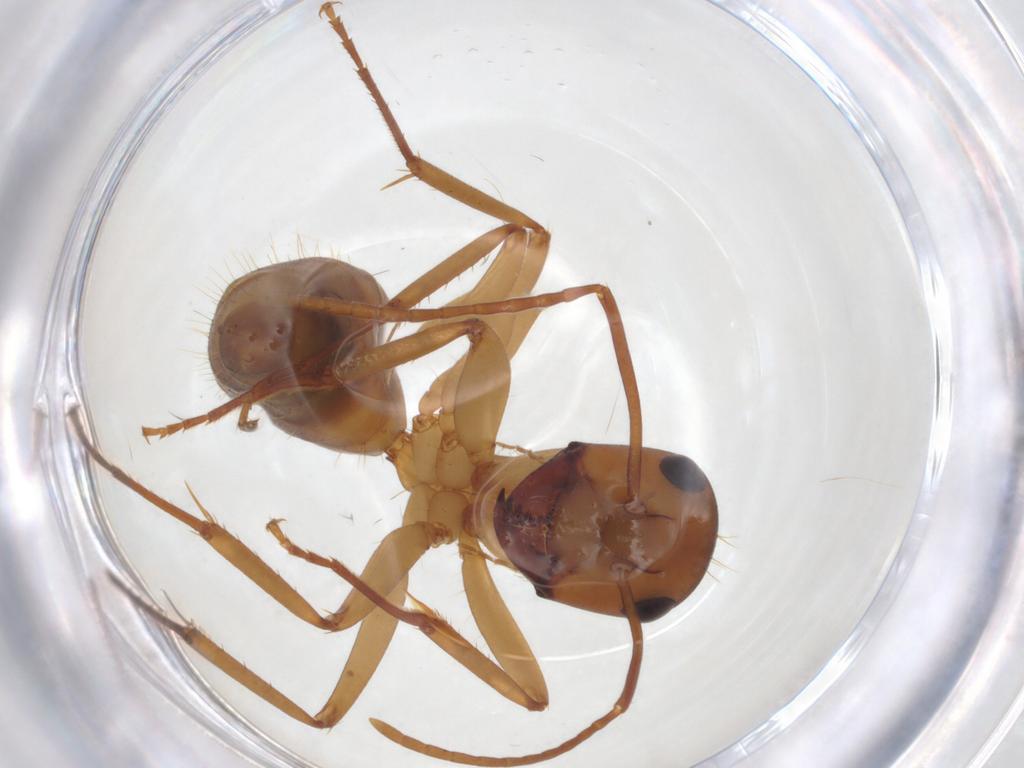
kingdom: Animalia
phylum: Arthropoda
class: Insecta
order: Hymenoptera
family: Formicidae
